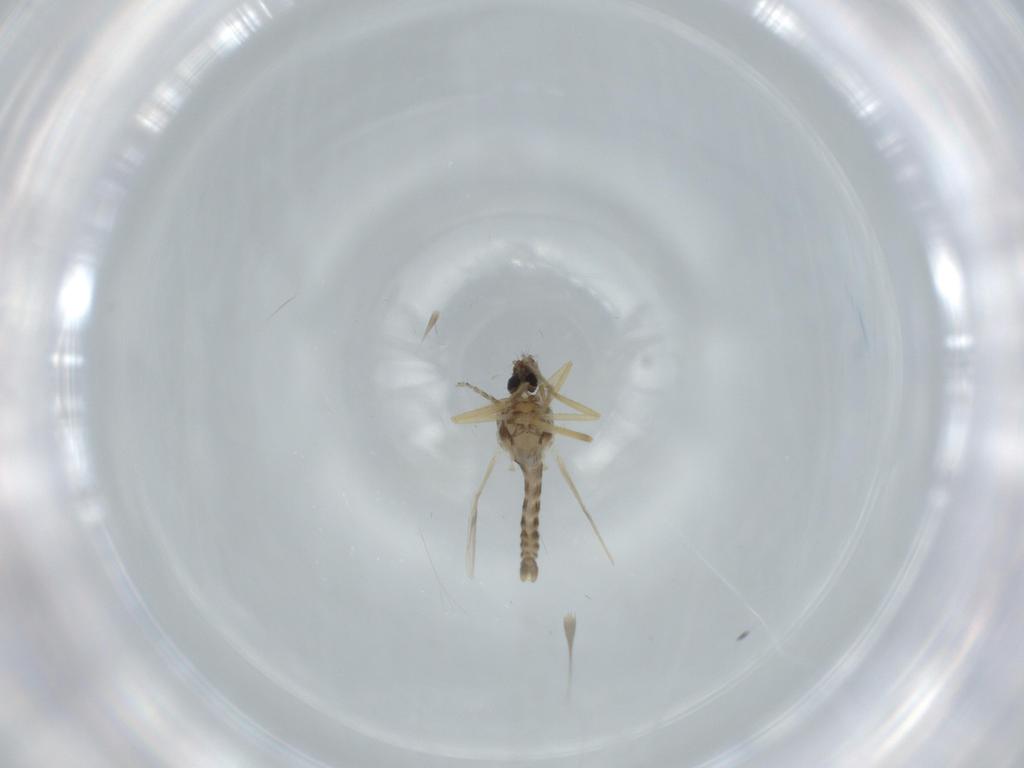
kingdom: Animalia
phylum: Arthropoda
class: Insecta
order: Diptera
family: Ceratopogonidae
